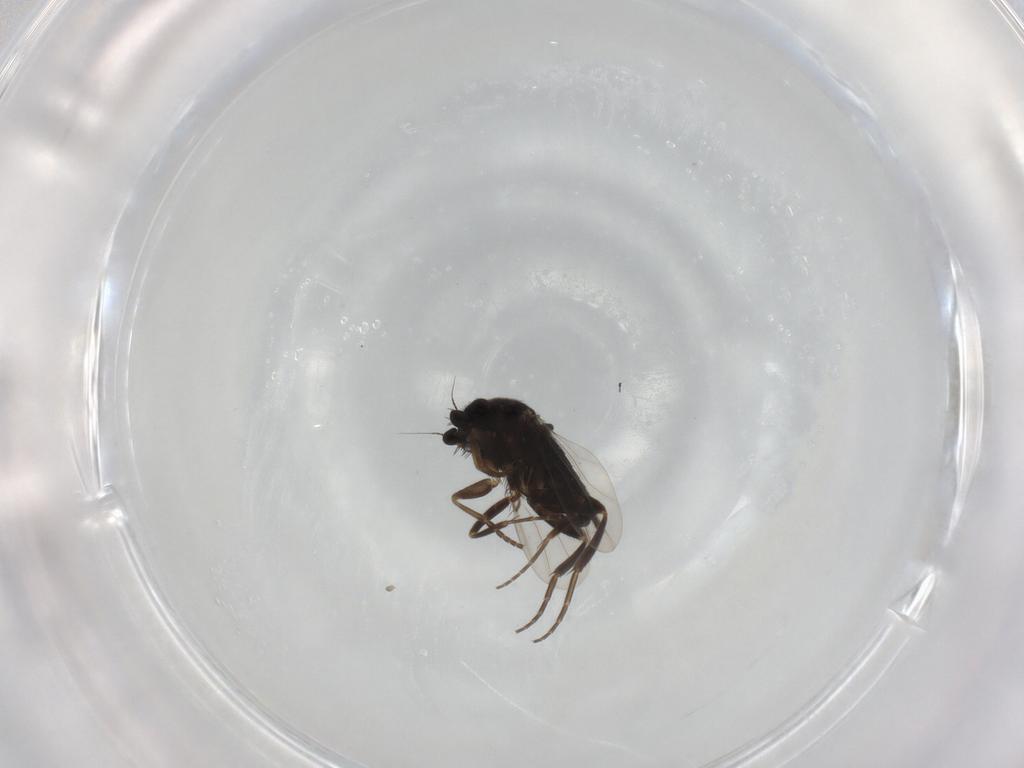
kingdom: Animalia
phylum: Arthropoda
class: Insecta
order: Diptera
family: Phoridae
